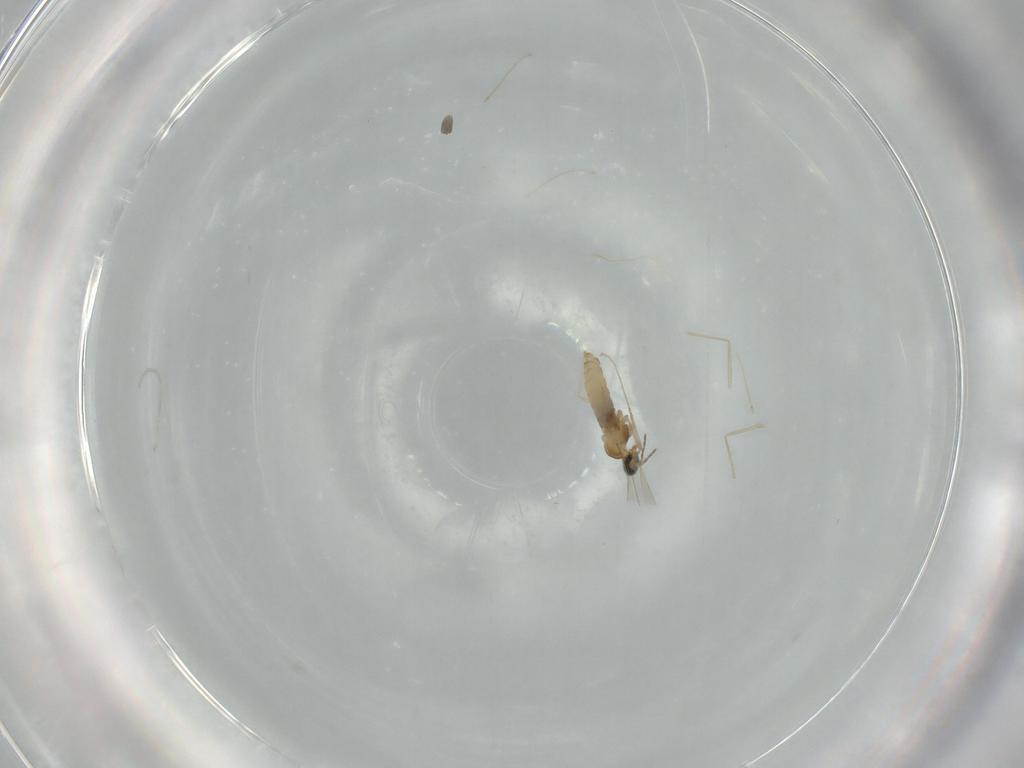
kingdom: Animalia
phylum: Arthropoda
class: Insecta
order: Diptera
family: Cecidomyiidae
